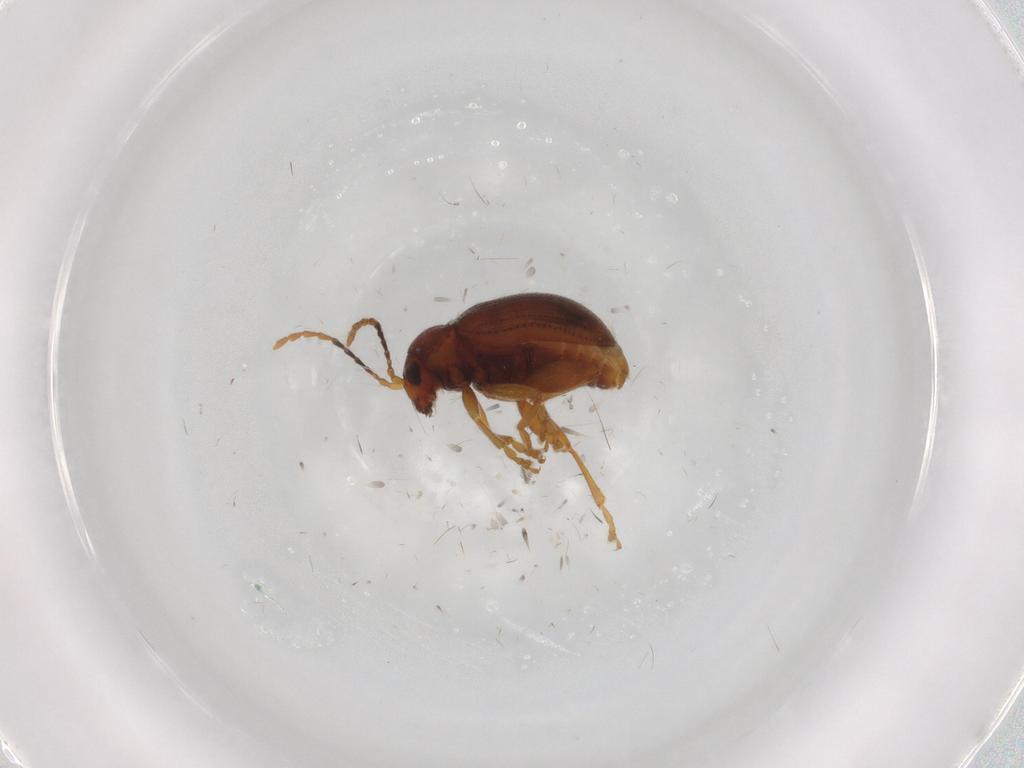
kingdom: Animalia
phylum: Arthropoda
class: Insecta
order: Coleoptera
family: Chrysomelidae
